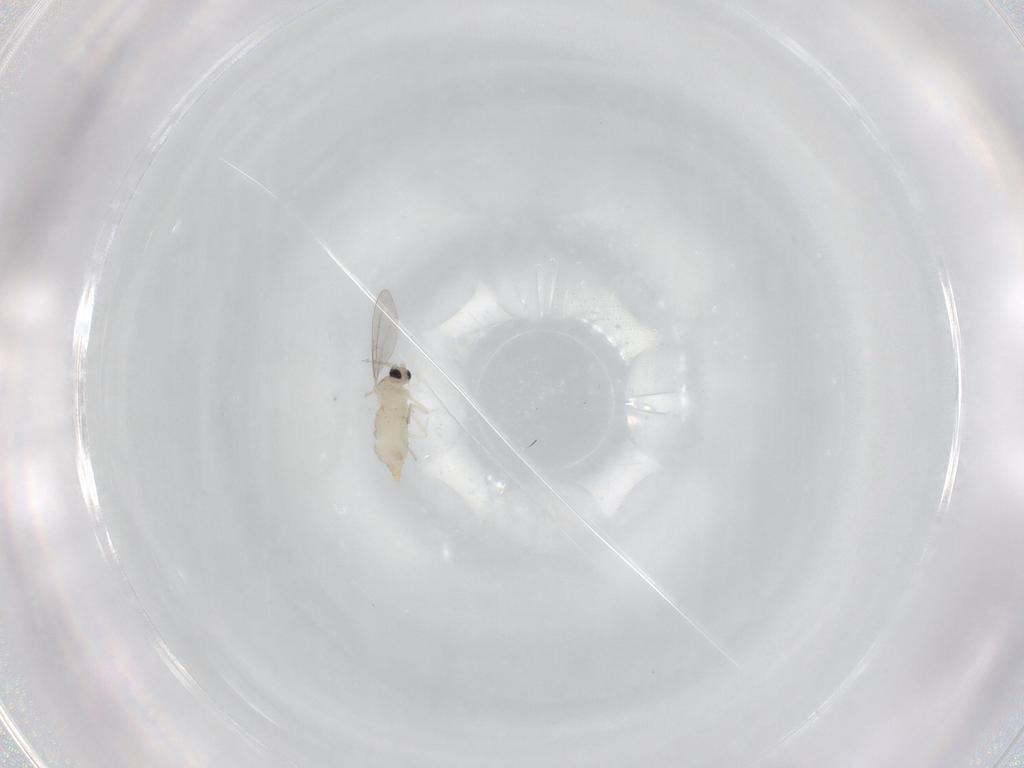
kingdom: Animalia
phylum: Arthropoda
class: Insecta
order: Diptera
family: Cecidomyiidae
